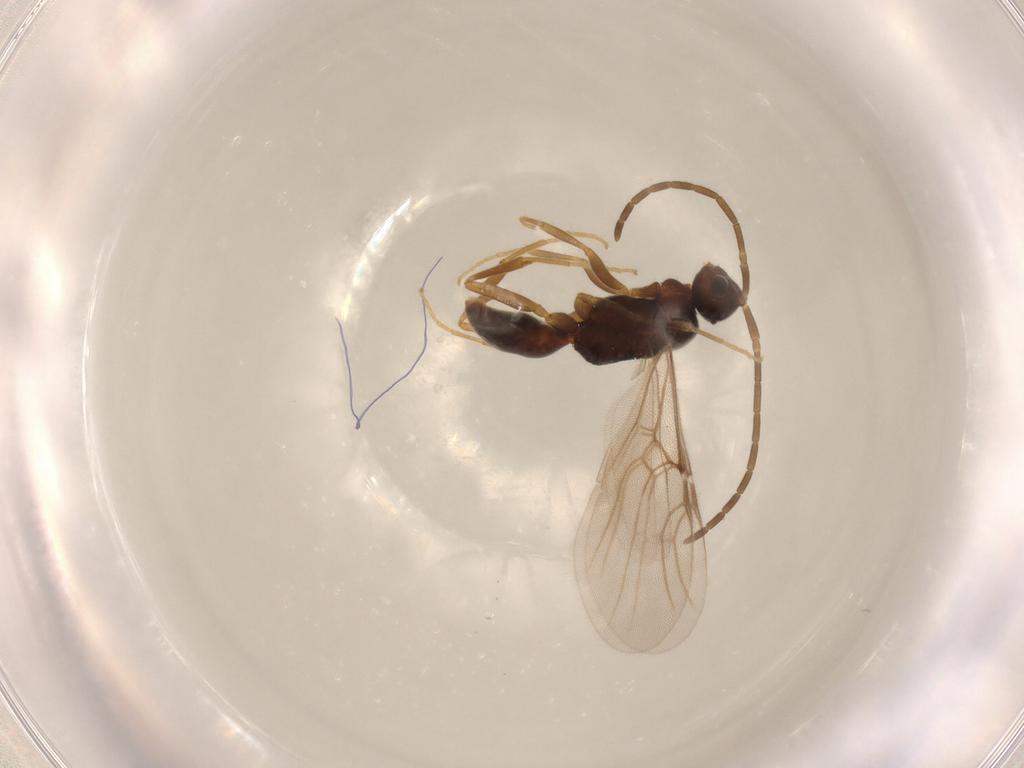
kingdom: Animalia
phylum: Arthropoda
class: Insecta
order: Hymenoptera
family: Embolemidae
